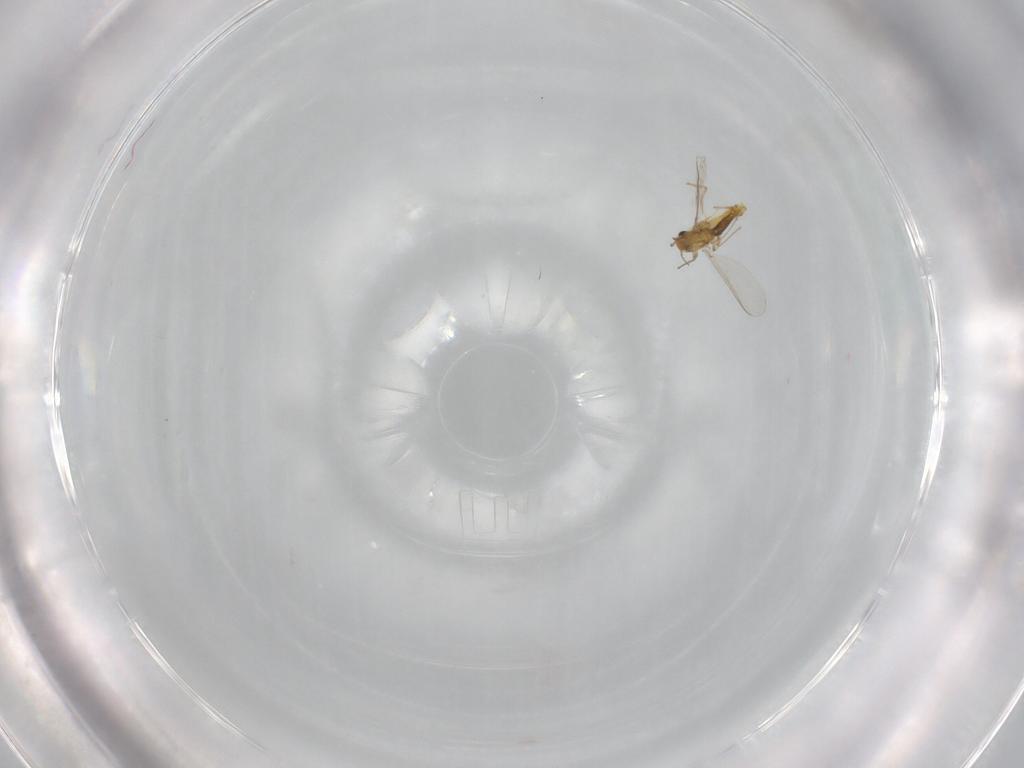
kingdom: Animalia
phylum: Arthropoda
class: Insecta
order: Diptera
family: Chironomidae
